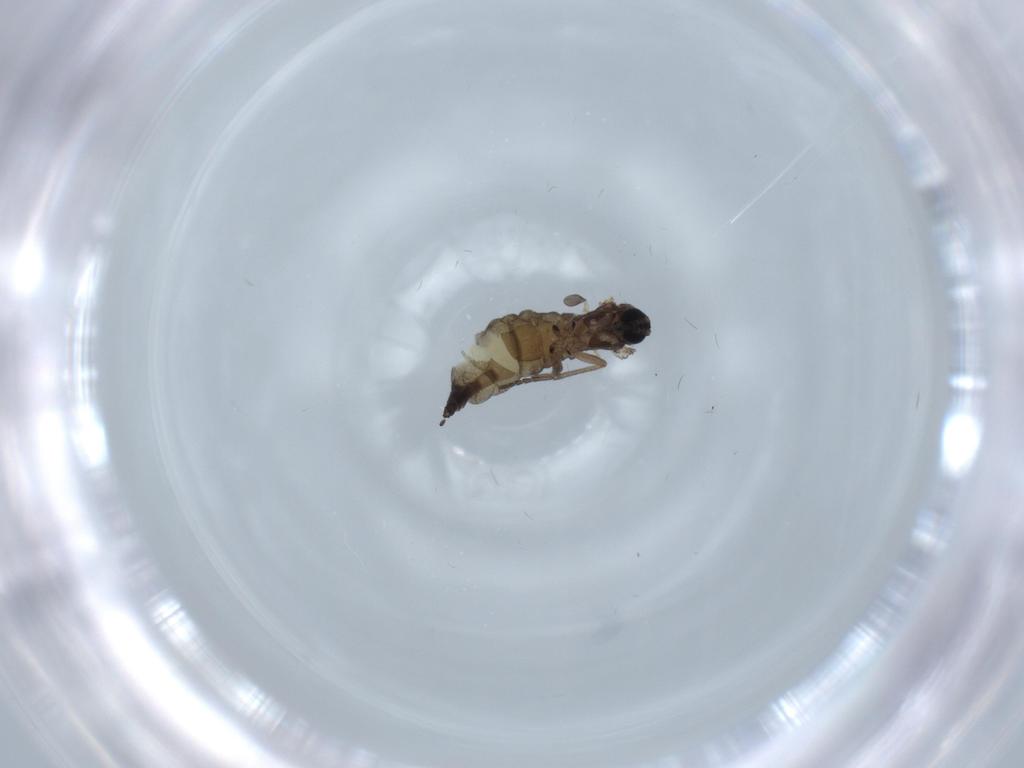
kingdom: Animalia
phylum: Arthropoda
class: Insecta
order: Diptera
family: Sciaridae
